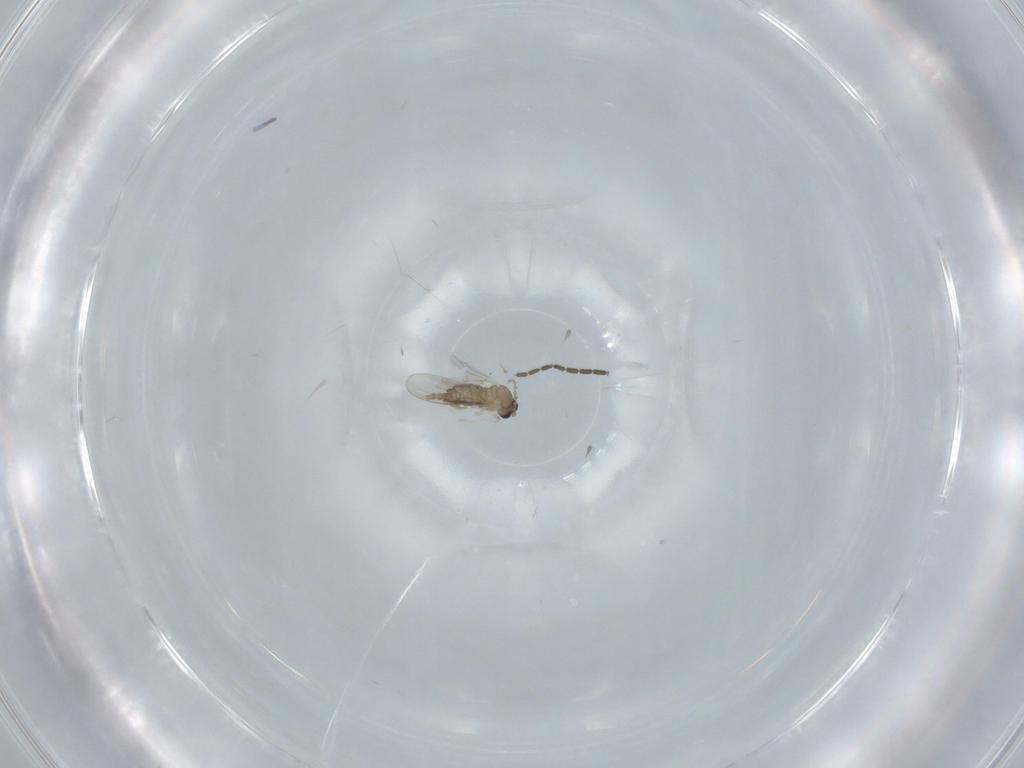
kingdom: Animalia
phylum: Arthropoda
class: Insecta
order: Diptera
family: Sciaridae
